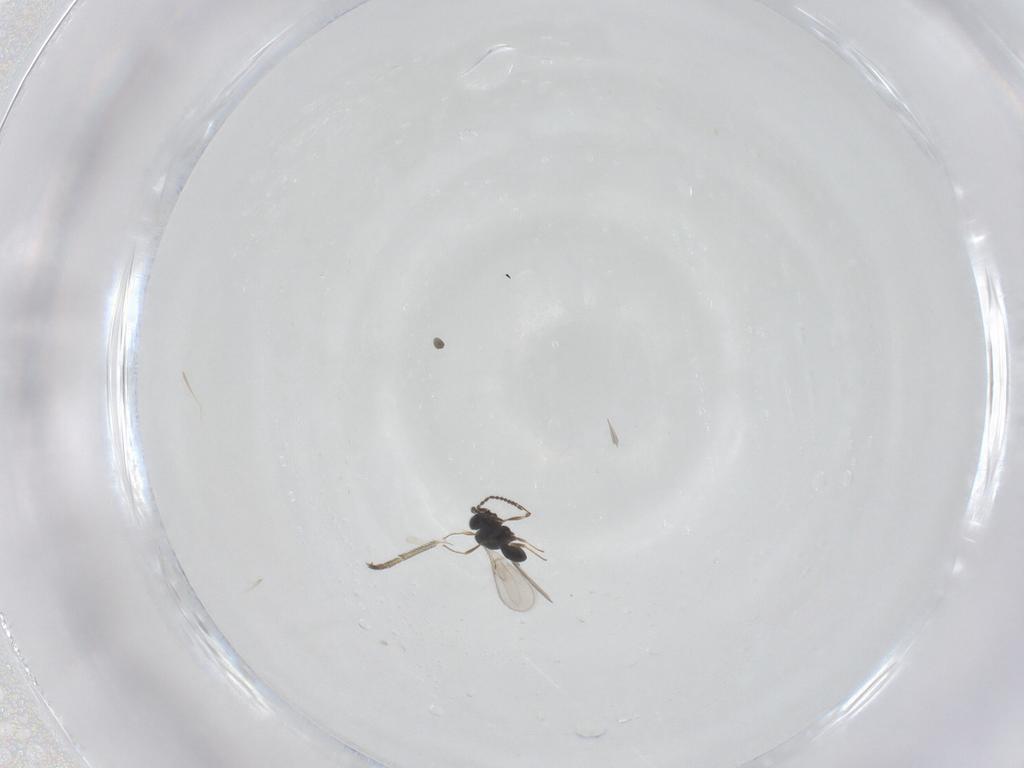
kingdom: Animalia
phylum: Arthropoda
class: Insecta
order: Hymenoptera
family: Scelionidae
